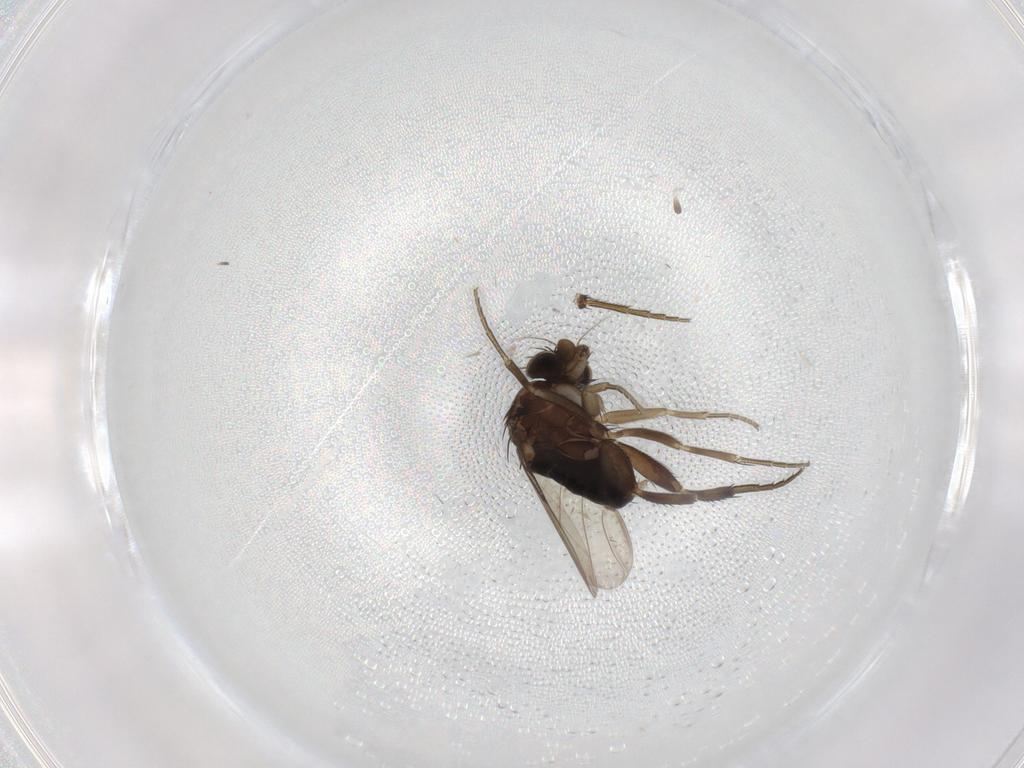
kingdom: Animalia
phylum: Arthropoda
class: Insecta
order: Diptera
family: Phoridae
